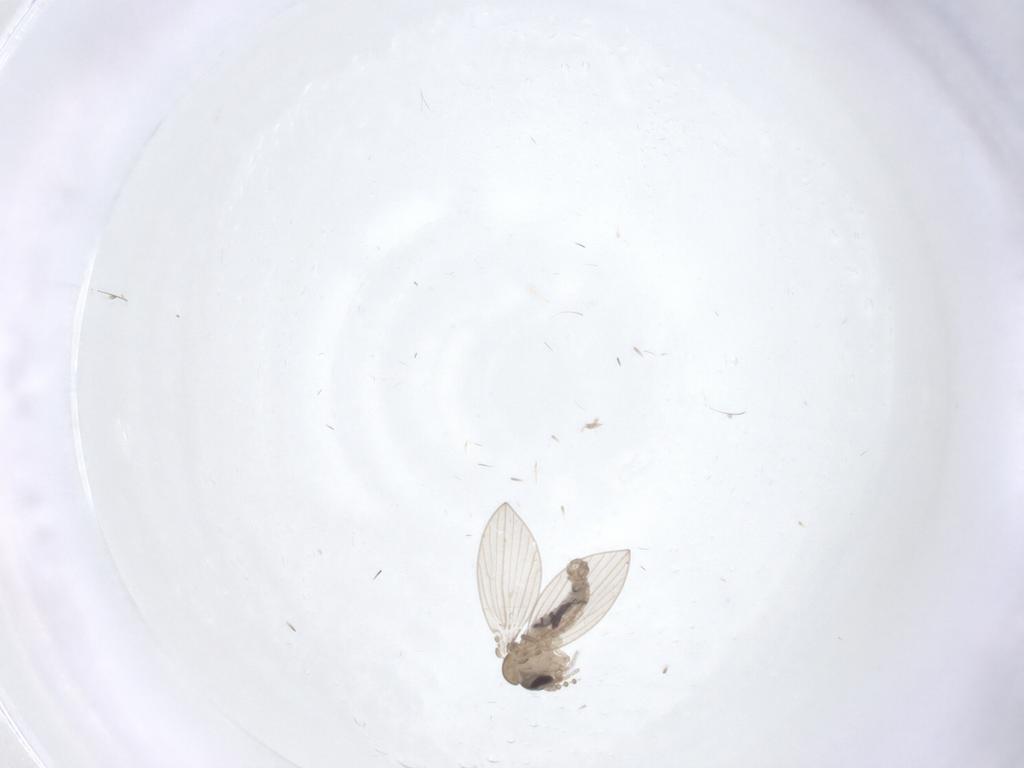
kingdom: Animalia
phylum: Arthropoda
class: Insecta
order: Diptera
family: Psychodidae
